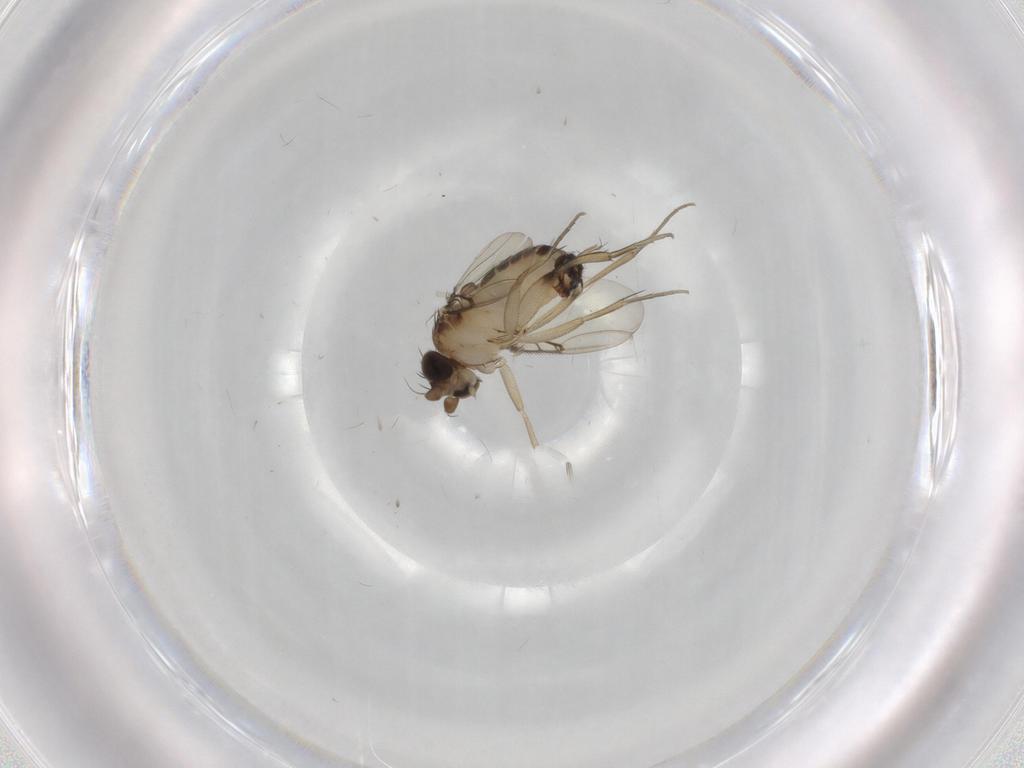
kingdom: Animalia
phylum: Arthropoda
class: Insecta
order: Diptera
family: Phoridae
